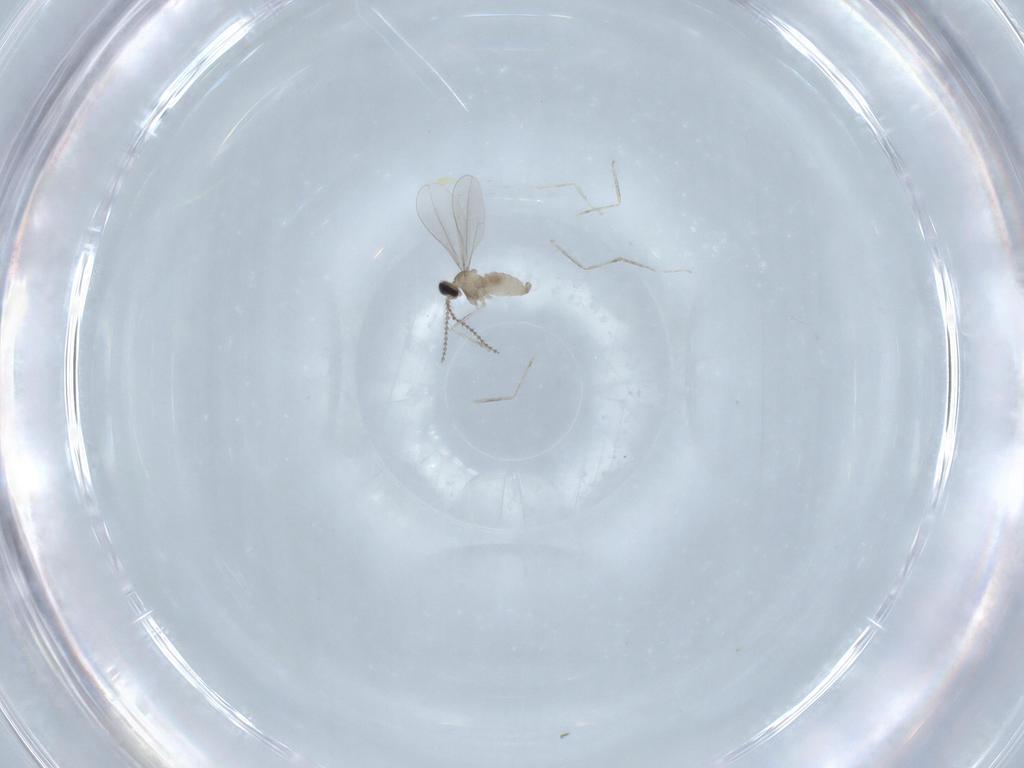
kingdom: Animalia
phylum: Arthropoda
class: Insecta
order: Diptera
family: Cecidomyiidae
